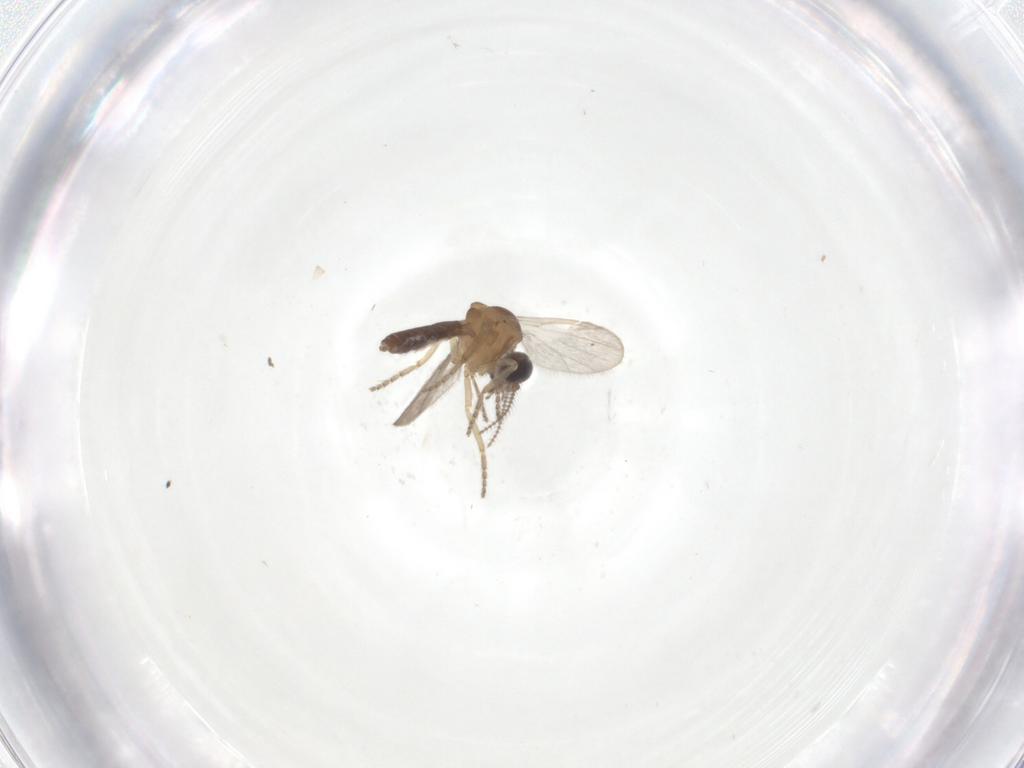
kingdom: Animalia
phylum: Arthropoda
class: Insecta
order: Diptera
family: Ceratopogonidae
